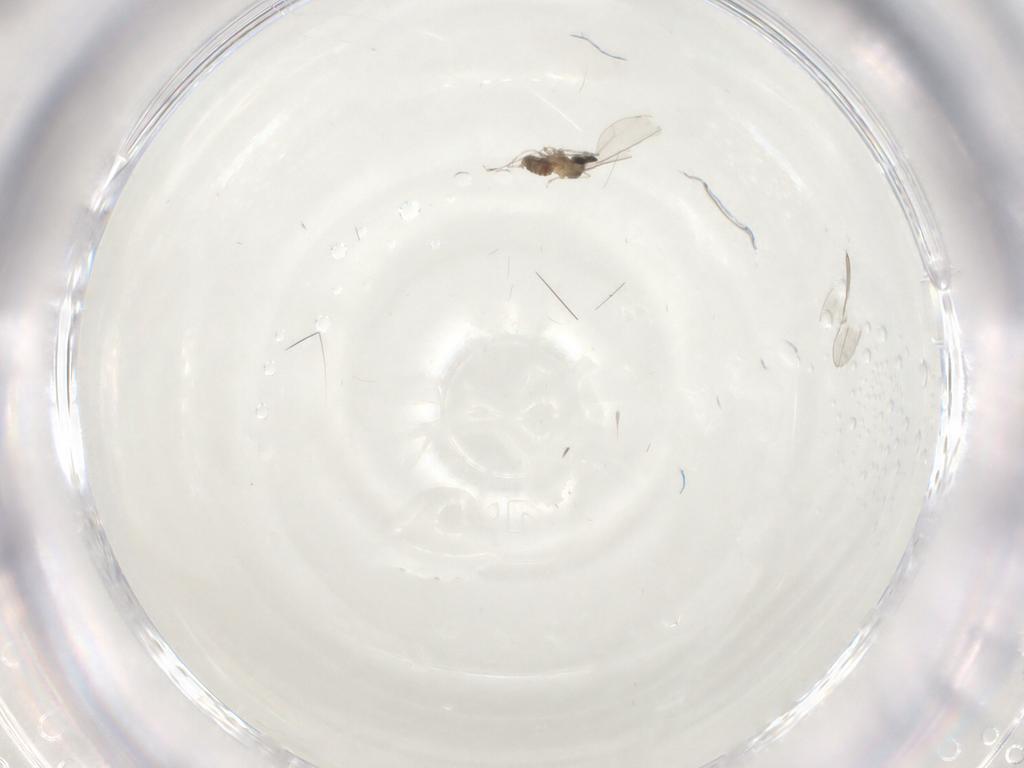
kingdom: Animalia
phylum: Arthropoda
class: Insecta
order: Diptera
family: Cecidomyiidae
